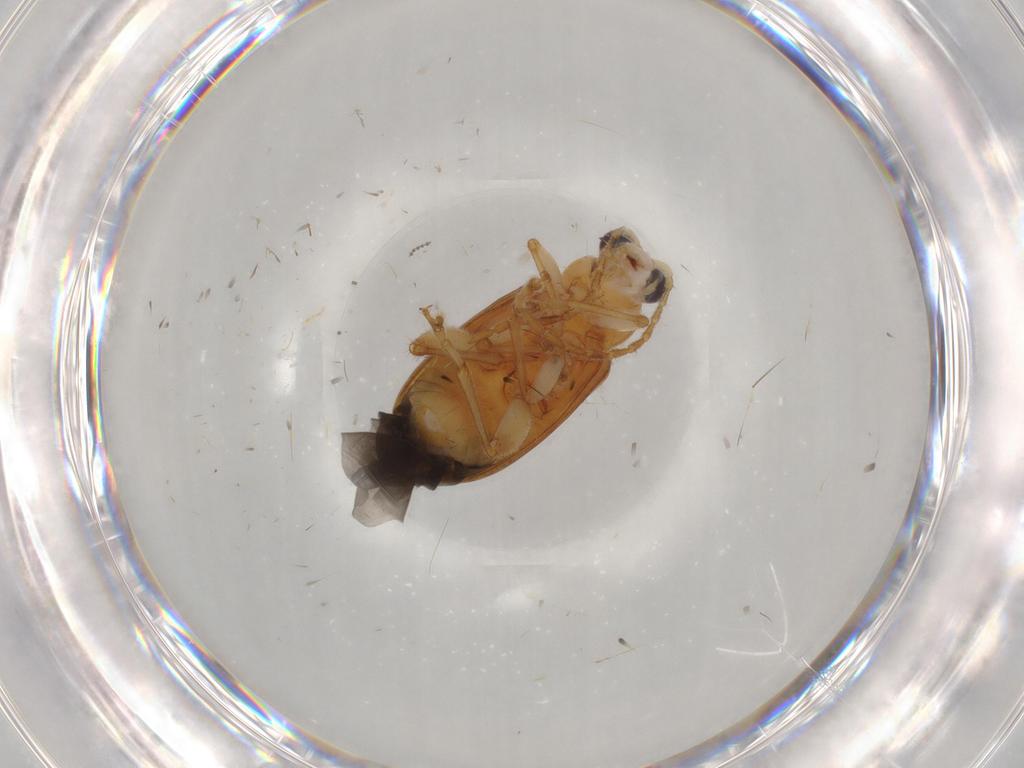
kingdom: Animalia
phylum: Arthropoda
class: Insecta
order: Coleoptera
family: Chrysomelidae
